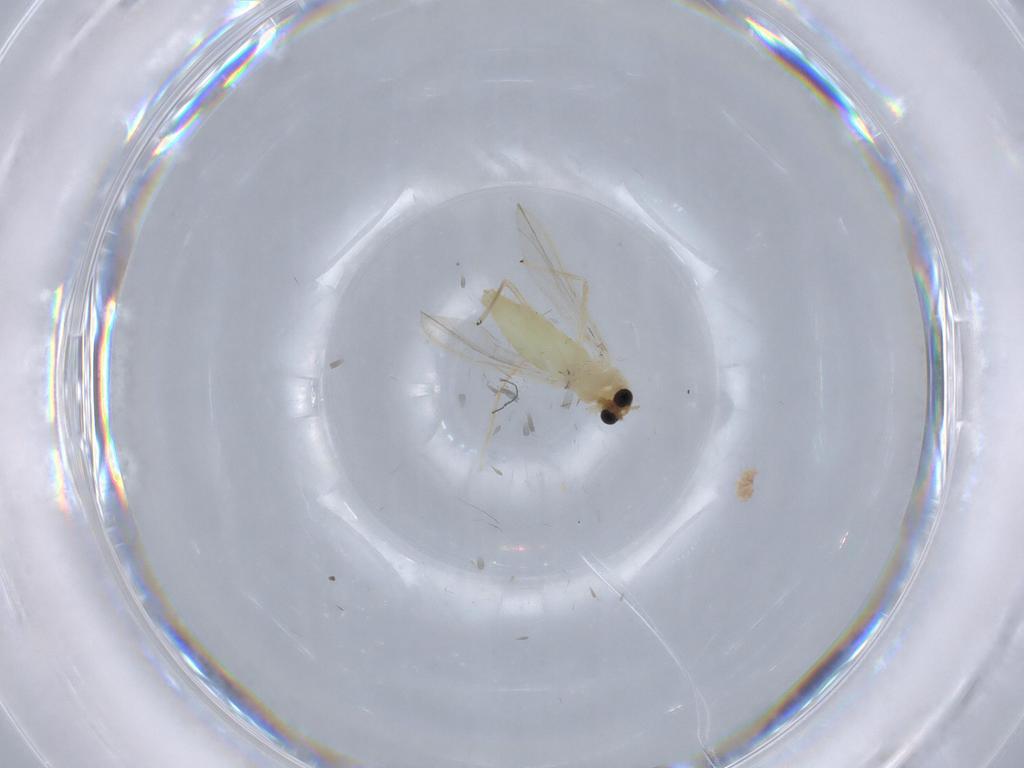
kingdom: Animalia
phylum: Arthropoda
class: Insecta
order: Diptera
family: Chironomidae
